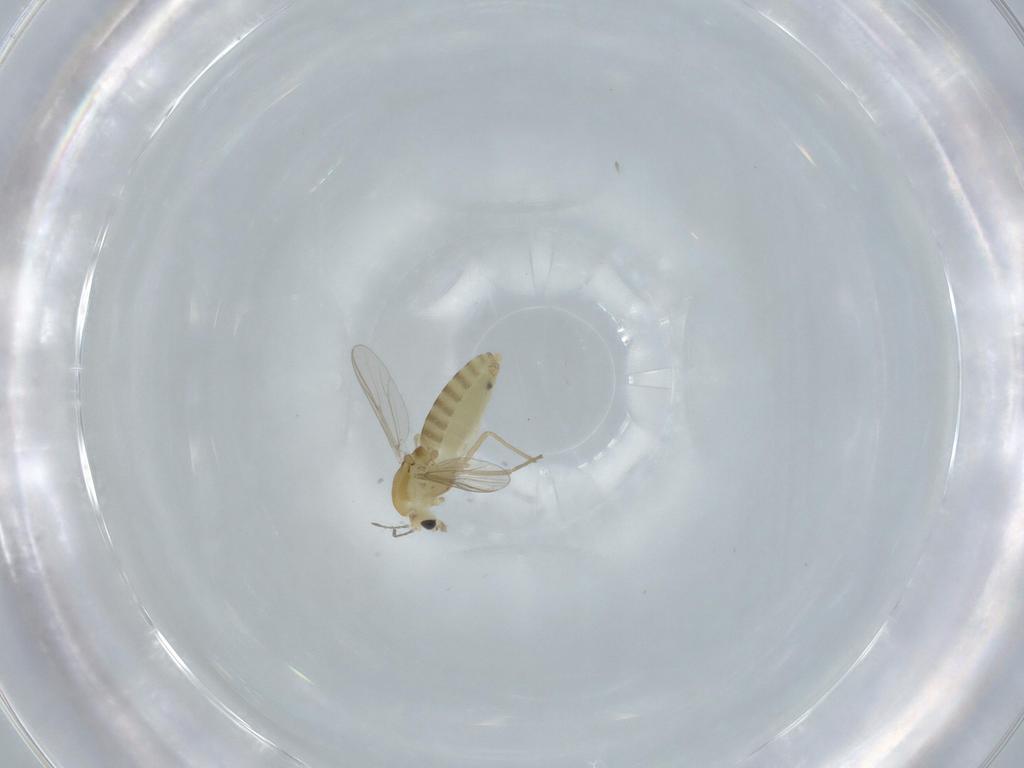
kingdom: Animalia
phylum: Arthropoda
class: Insecta
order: Diptera
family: Chironomidae
